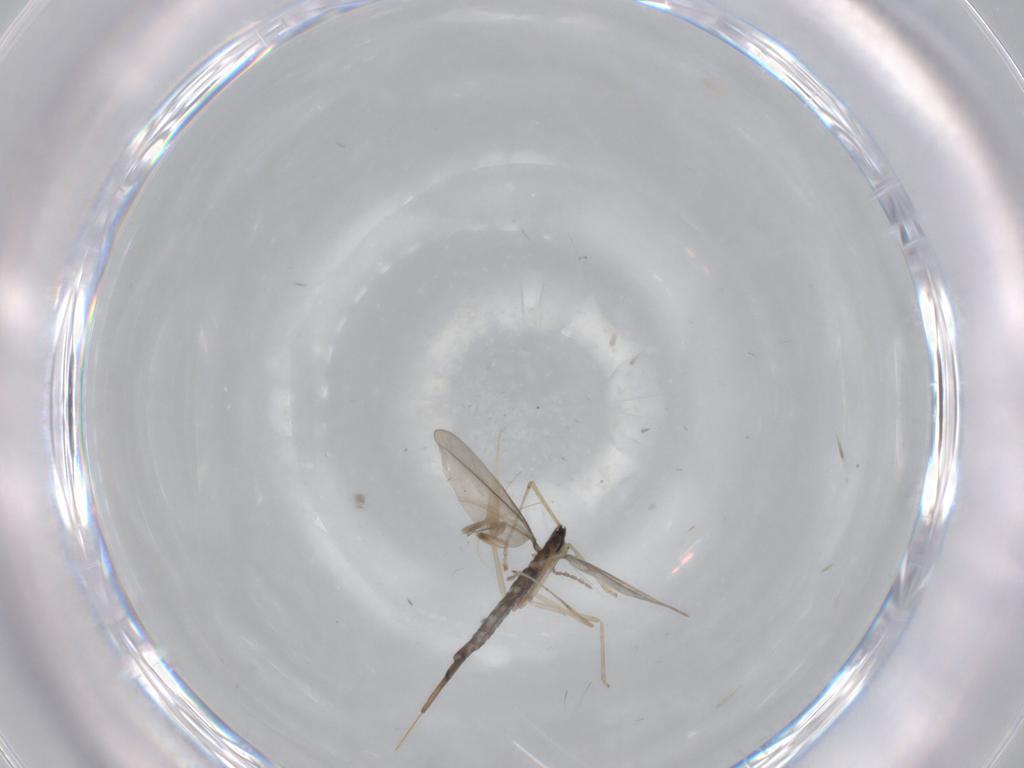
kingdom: Animalia
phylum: Arthropoda
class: Insecta
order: Diptera
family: Cecidomyiidae
